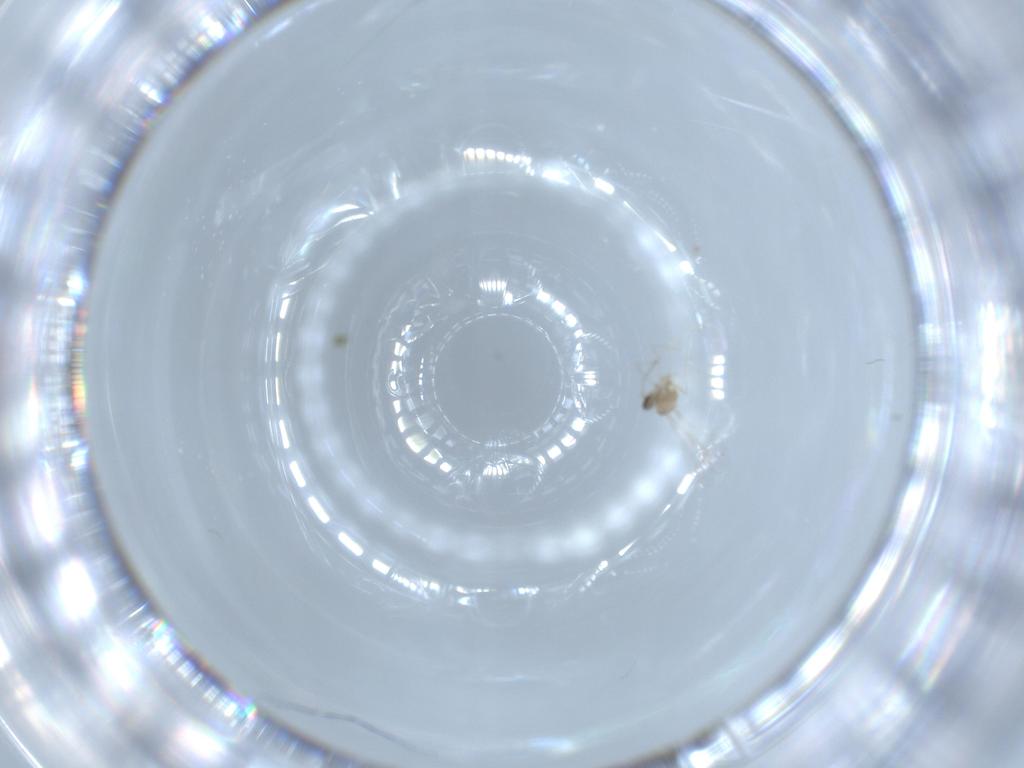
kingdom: Animalia
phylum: Arthropoda
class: Insecta
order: Diptera
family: Cecidomyiidae
